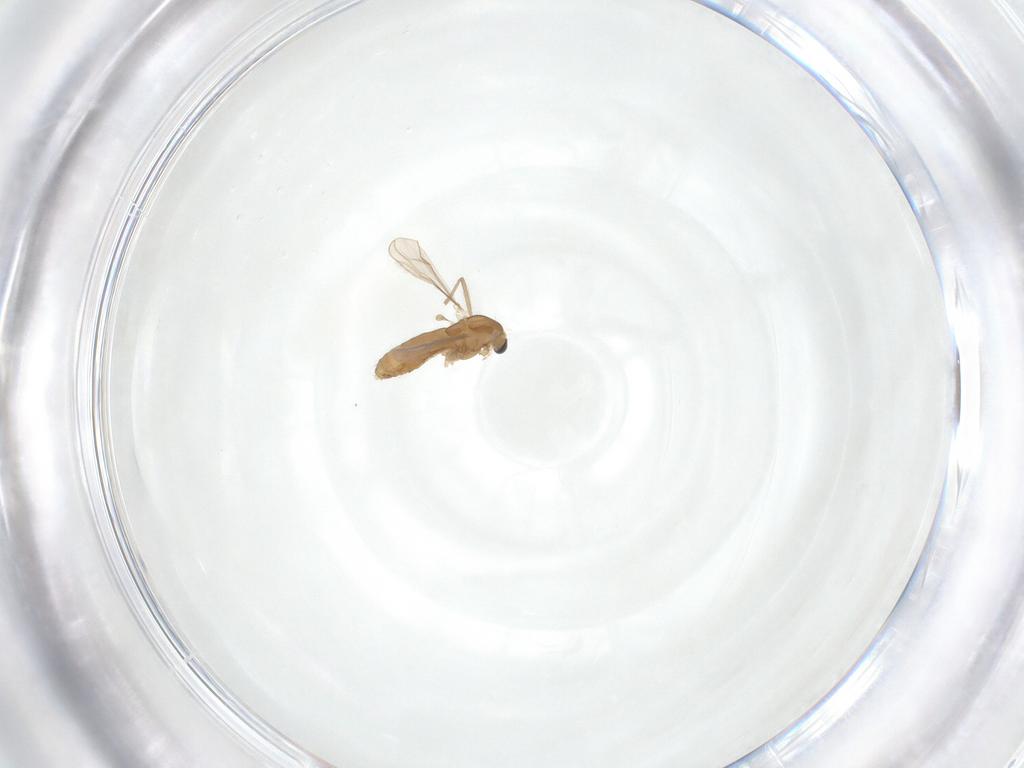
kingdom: Animalia
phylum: Arthropoda
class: Insecta
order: Diptera
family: Chironomidae
